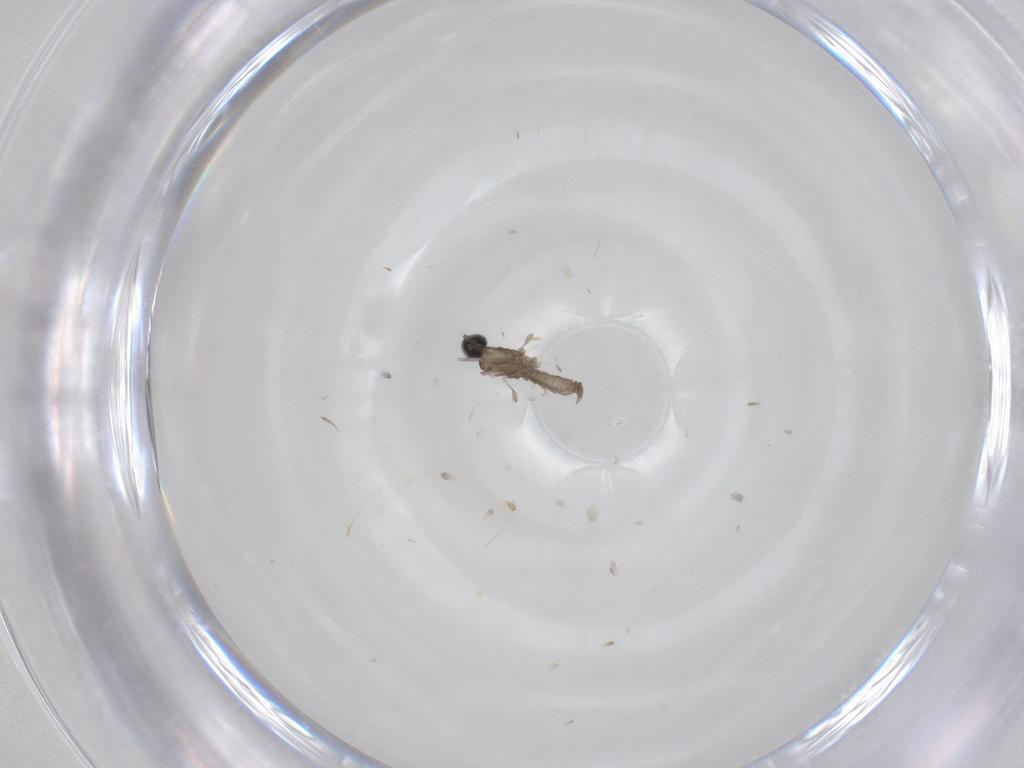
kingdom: Animalia
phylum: Arthropoda
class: Insecta
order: Diptera
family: Cecidomyiidae
